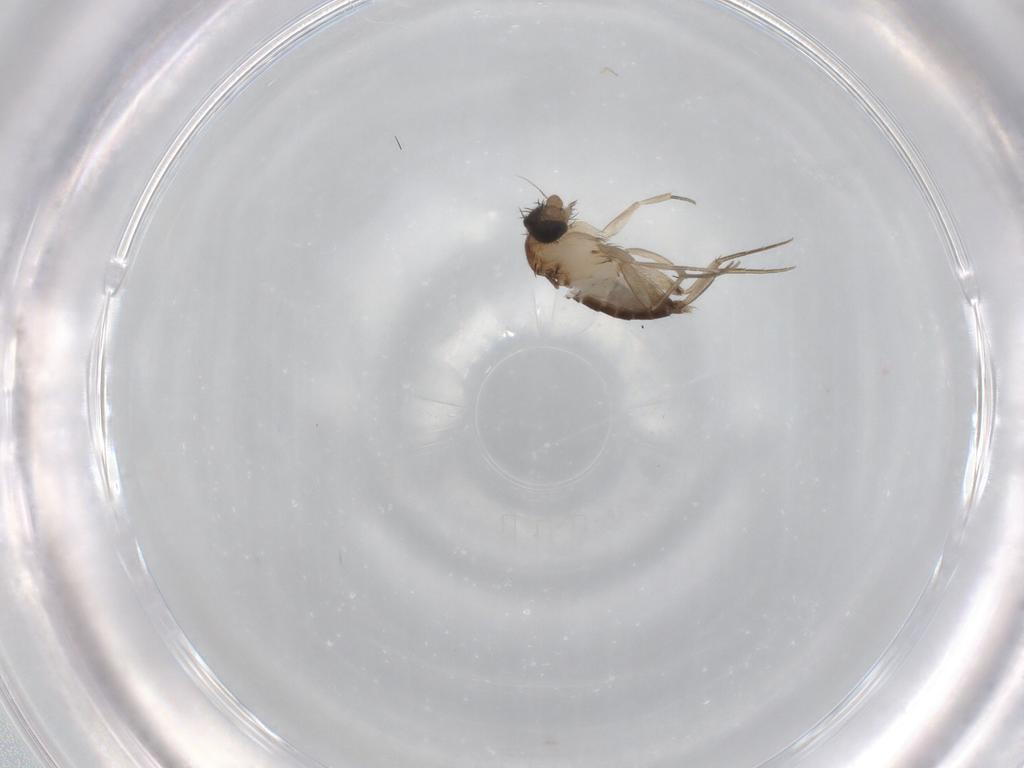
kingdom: Animalia
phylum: Arthropoda
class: Insecta
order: Diptera
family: Phoridae
